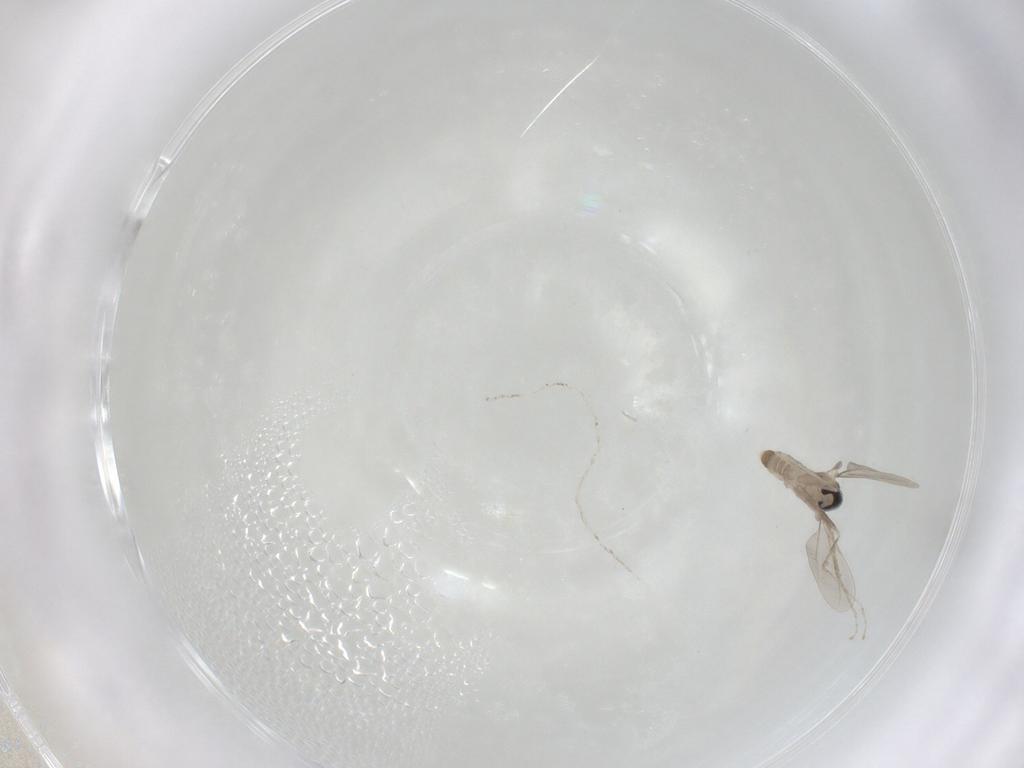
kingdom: Animalia
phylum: Arthropoda
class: Insecta
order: Diptera
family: Cecidomyiidae
